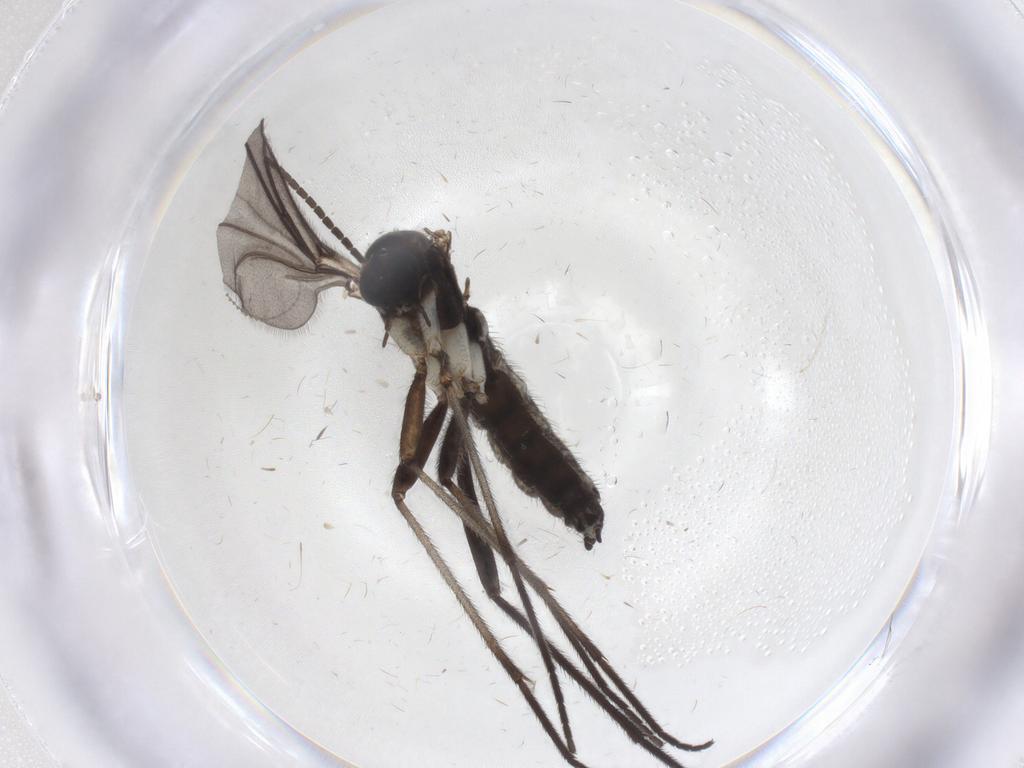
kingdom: Animalia
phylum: Arthropoda
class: Insecta
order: Diptera
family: Sciaridae
